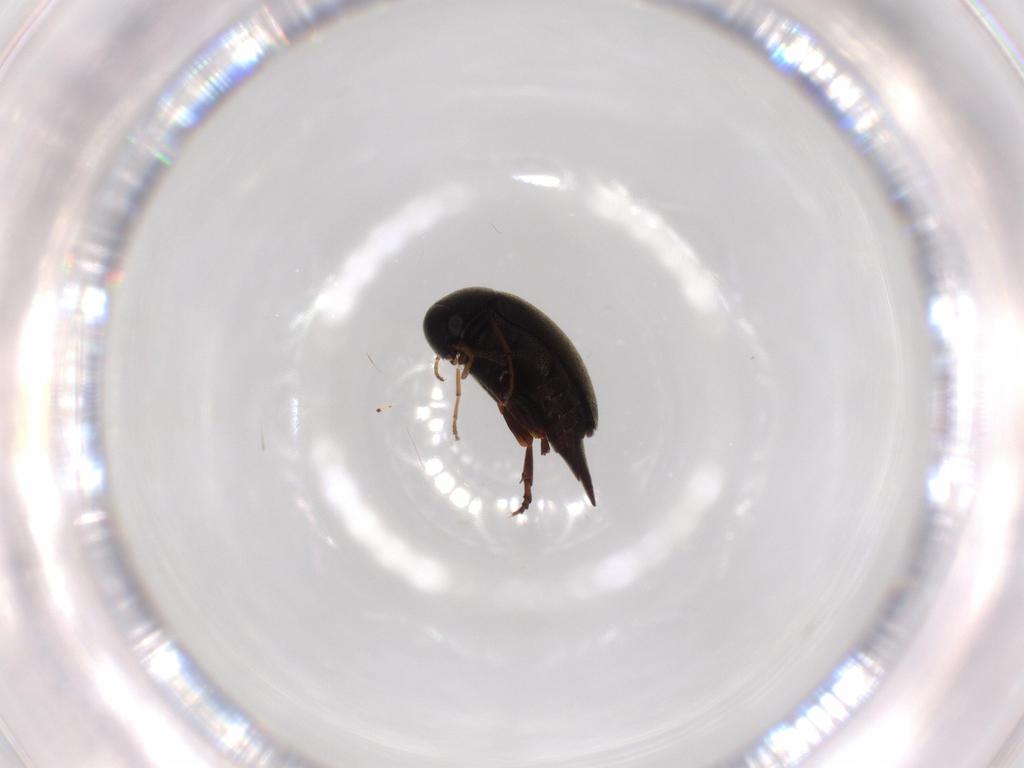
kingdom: Animalia
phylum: Arthropoda
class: Insecta
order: Coleoptera
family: Mordellidae
